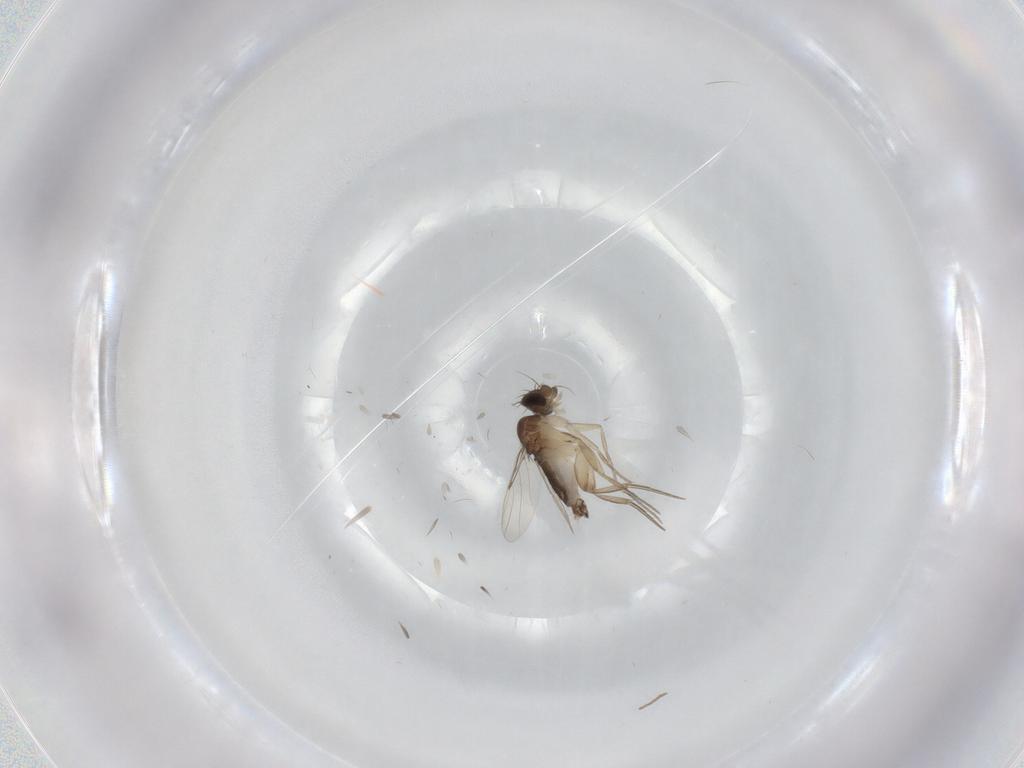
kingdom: Animalia
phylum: Arthropoda
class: Insecta
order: Diptera
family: Phoridae
